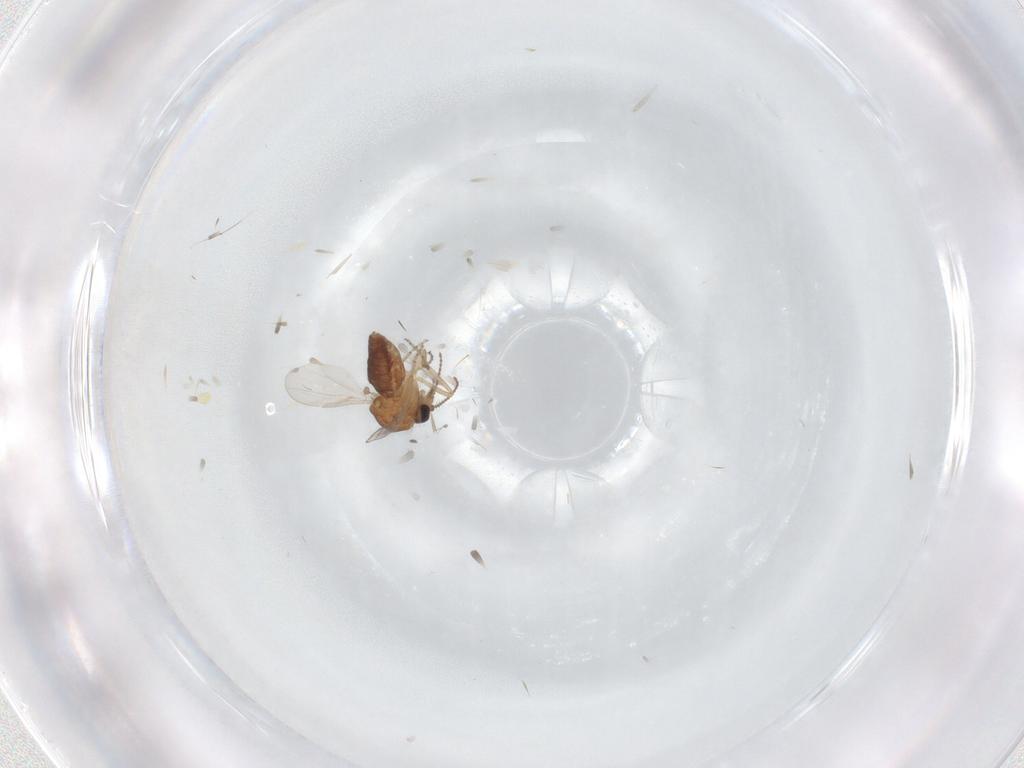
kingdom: Animalia
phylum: Arthropoda
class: Insecta
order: Diptera
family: Ceratopogonidae
